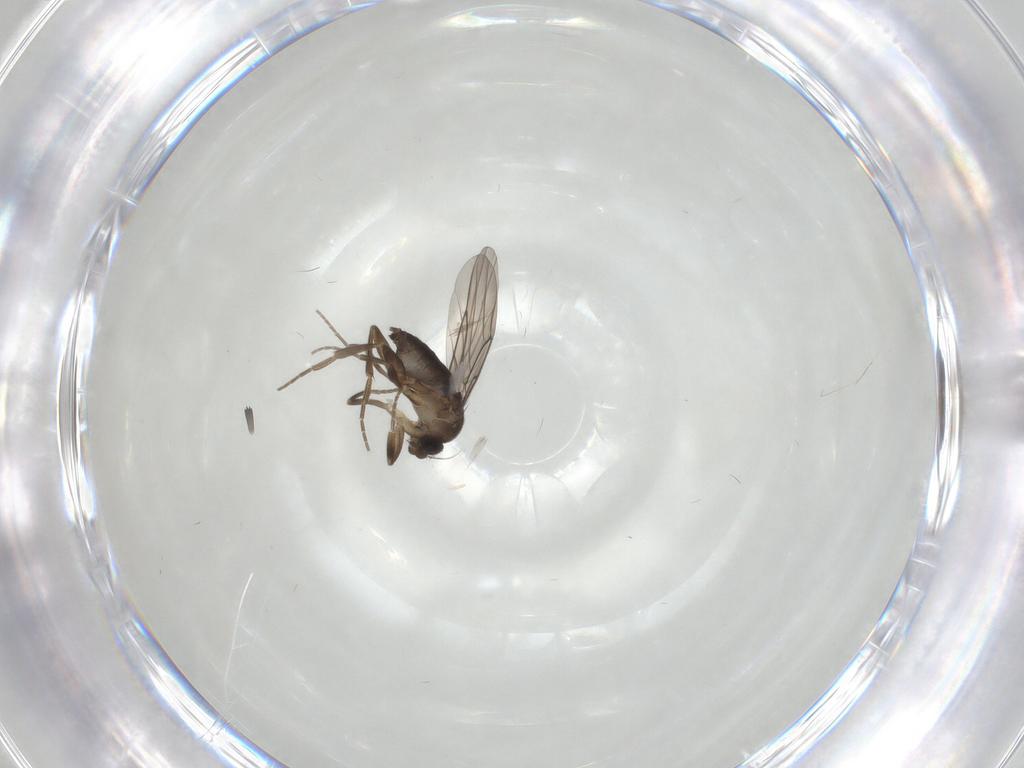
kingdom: Animalia
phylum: Arthropoda
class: Insecta
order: Diptera
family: Phoridae
